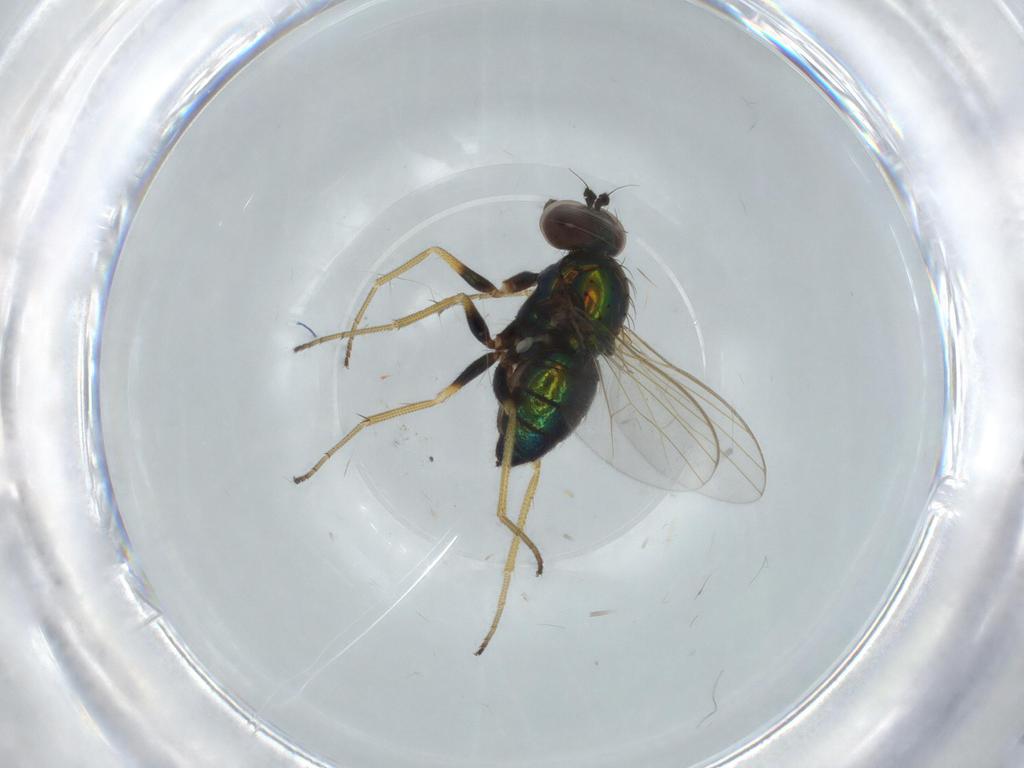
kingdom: Animalia
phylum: Arthropoda
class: Insecta
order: Diptera
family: Dolichopodidae
